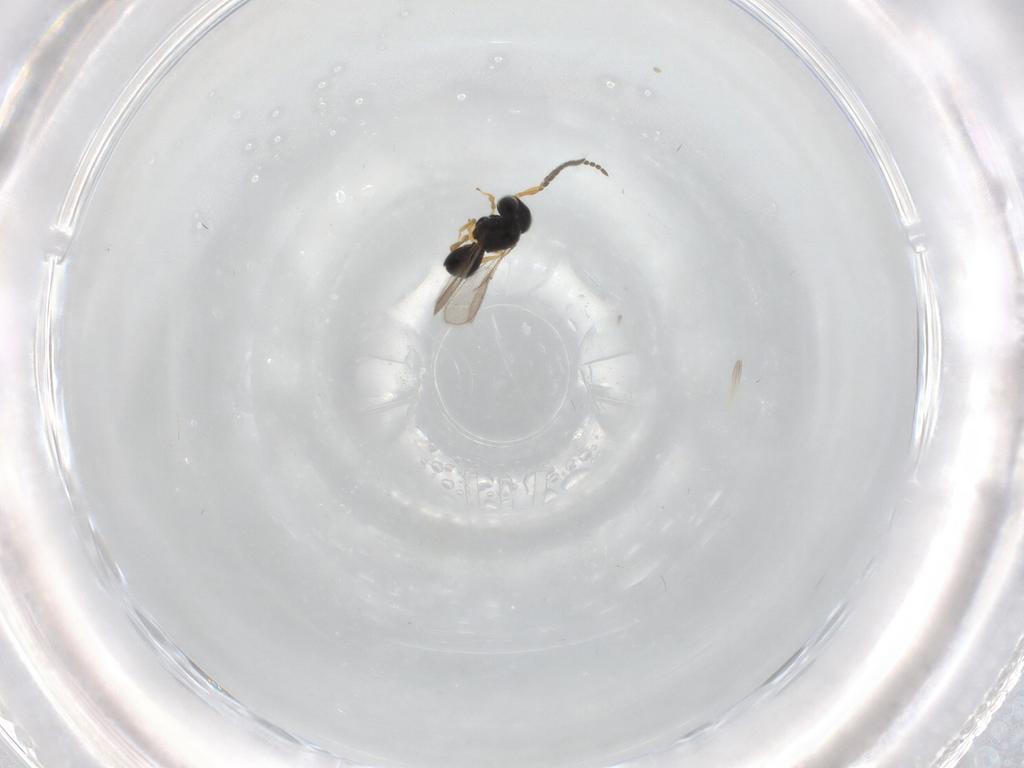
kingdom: Animalia
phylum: Arthropoda
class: Insecta
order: Hymenoptera
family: Scelionidae
